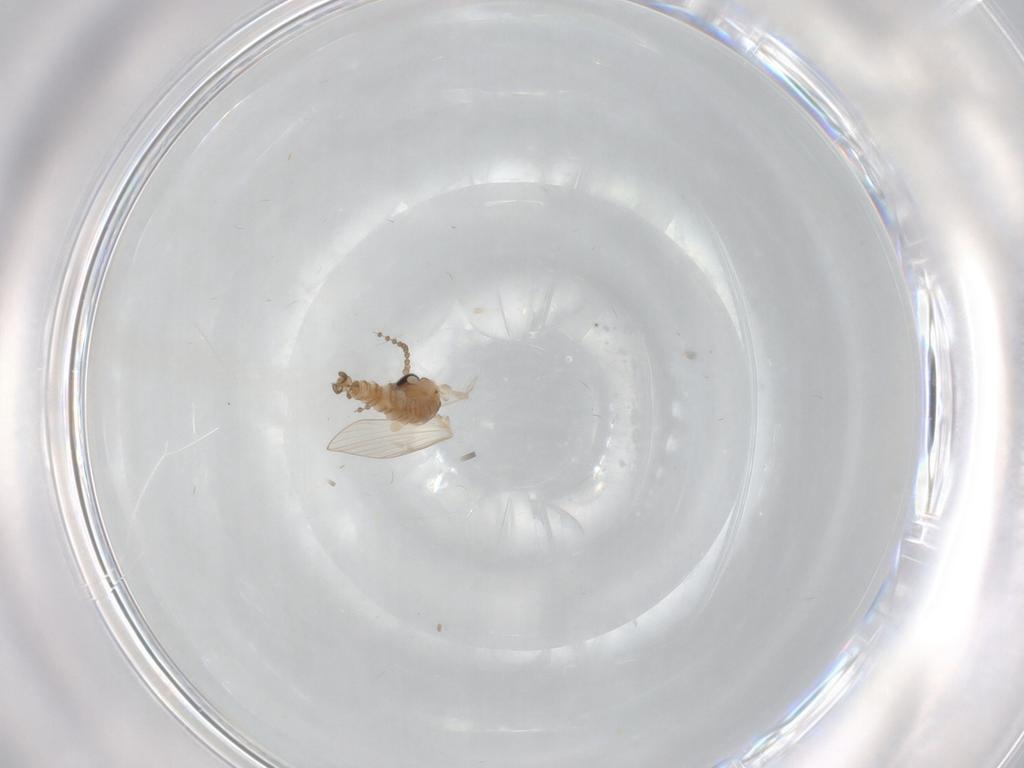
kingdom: Animalia
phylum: Arthropoda
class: Insecta
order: Diptera
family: Psychodidae
